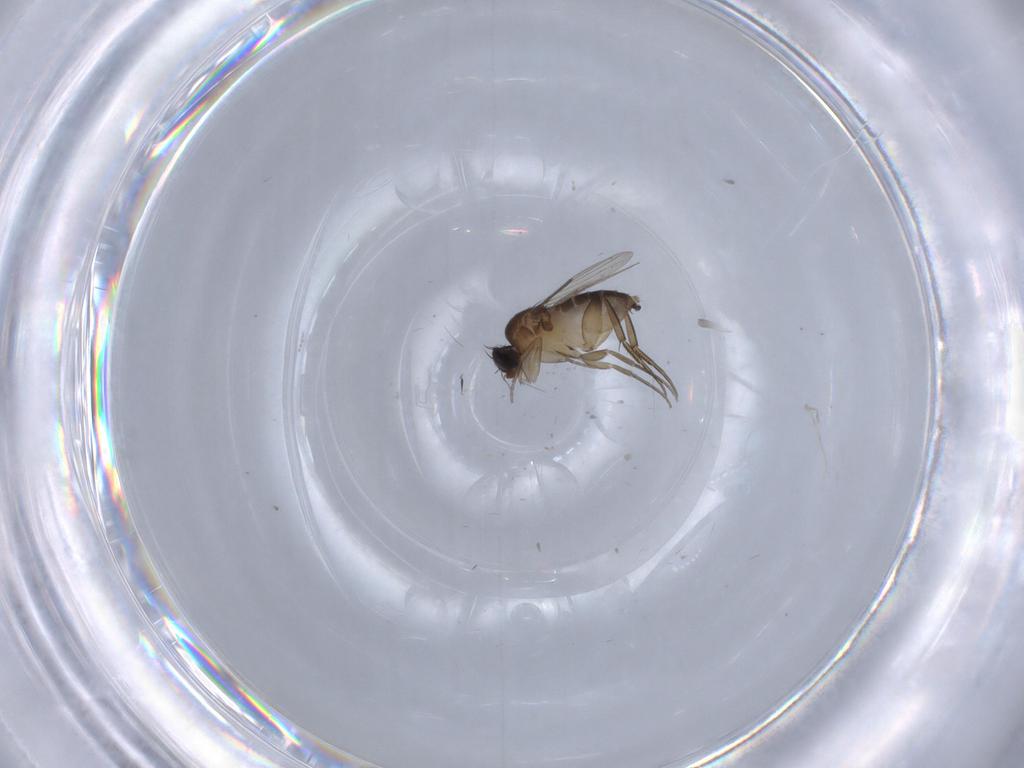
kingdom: Animalia
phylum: Arthropoda
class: Insecta
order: Diptera
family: Phoridae
